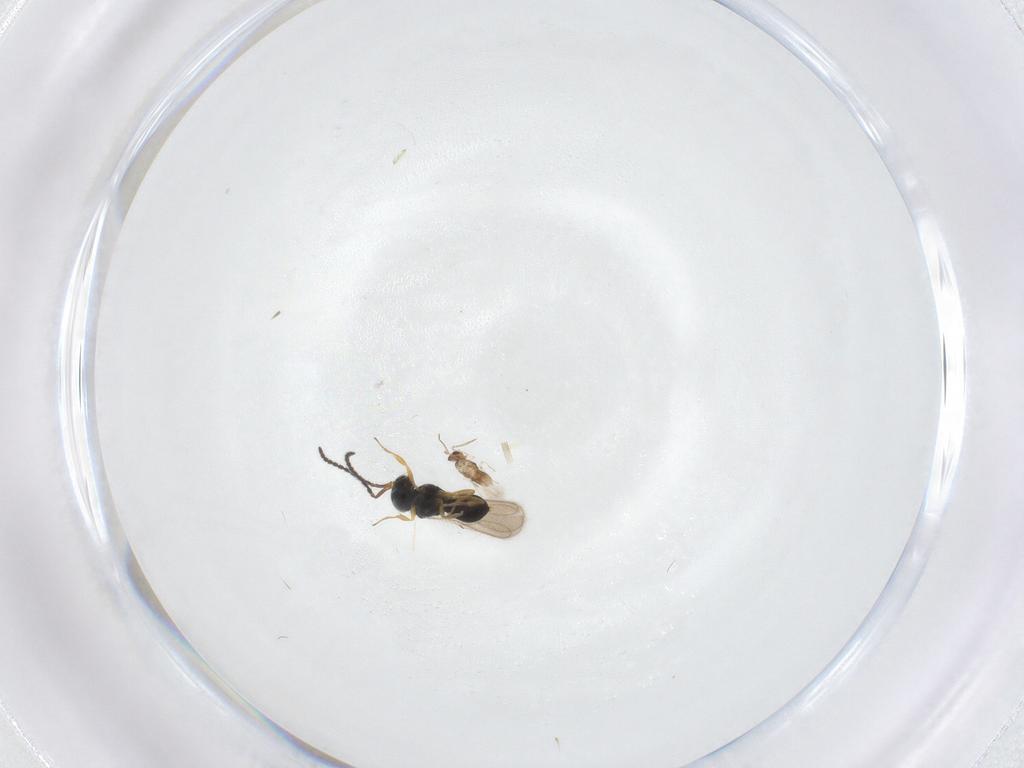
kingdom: Animalia
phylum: Arthropoda
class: Insecta
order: Hymenoptera
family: Scelionidae
